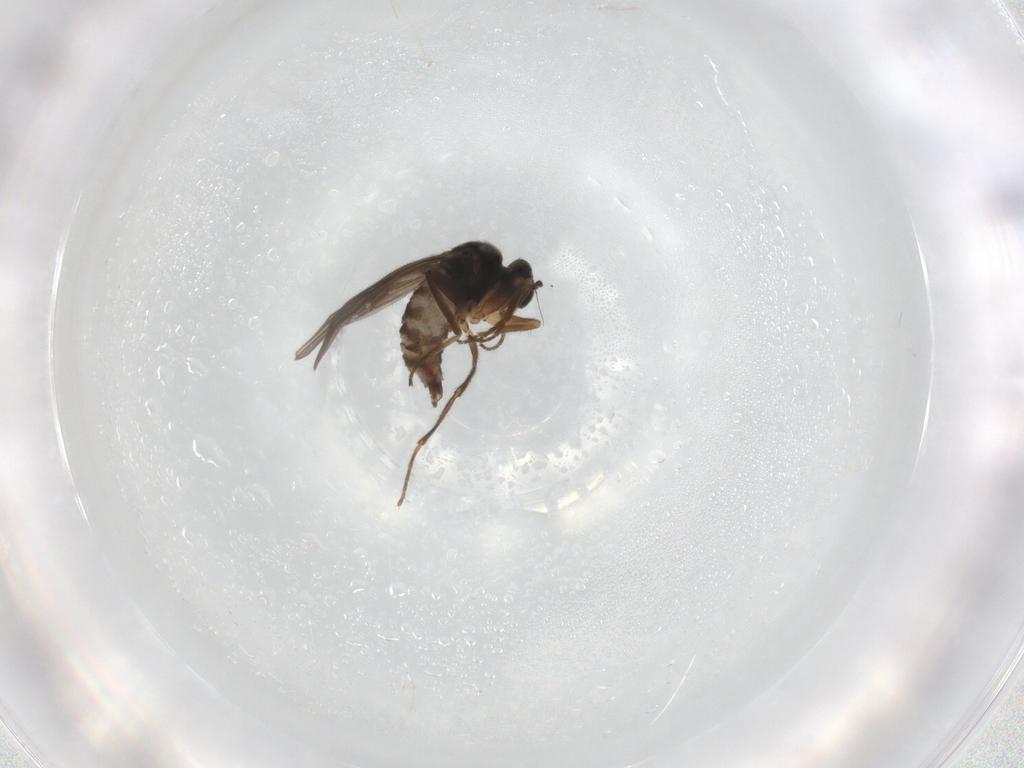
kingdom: Animalia
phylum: Arthropoda
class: Insecta
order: Diptera
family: Hybotidae
